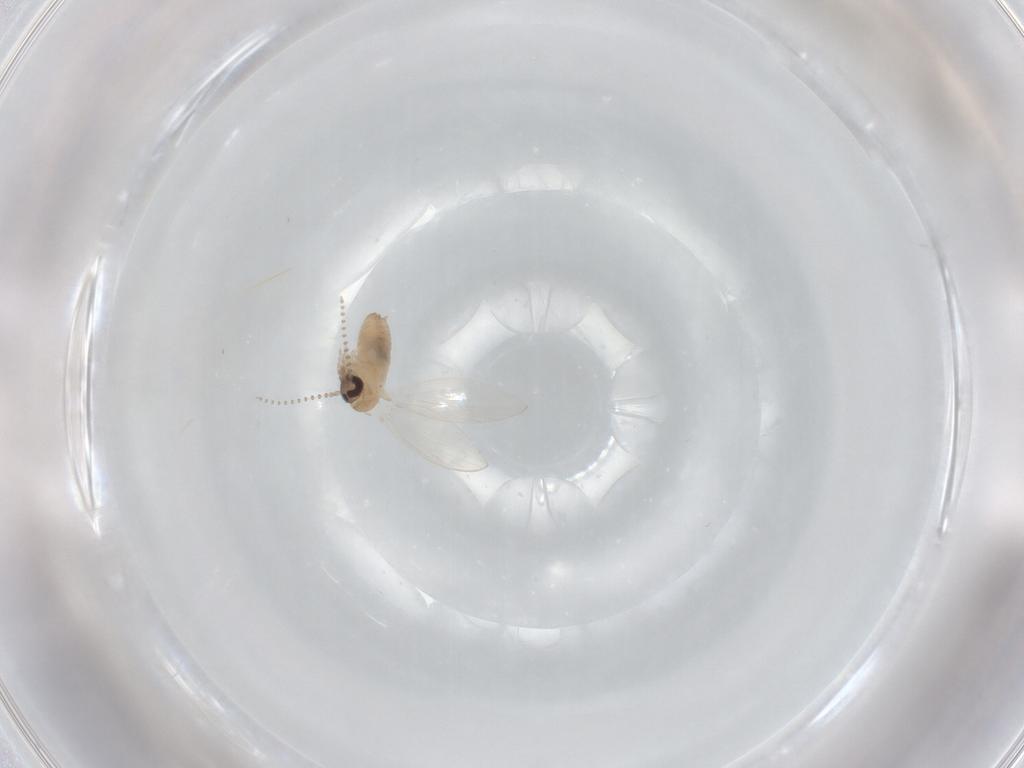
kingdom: Animalia
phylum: Arthropoda
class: Insecta
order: Diptera
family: Psychodidae
